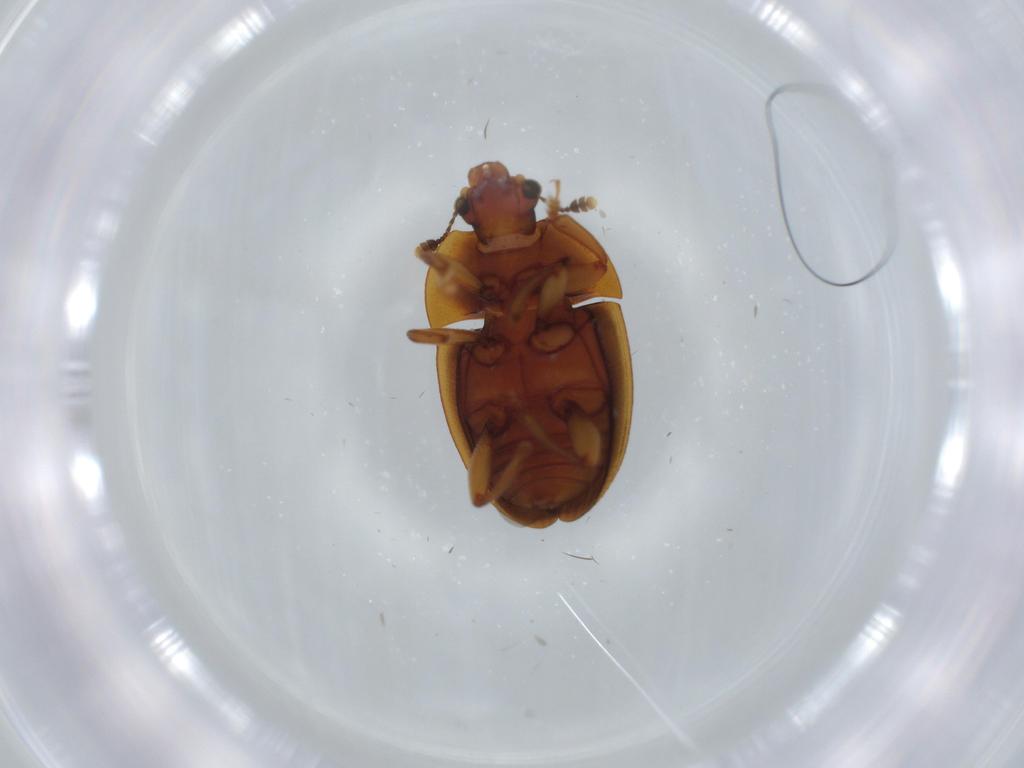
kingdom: Animalia
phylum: Arthropoda
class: Insecta
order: Coleoptera
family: Nitidulidae
